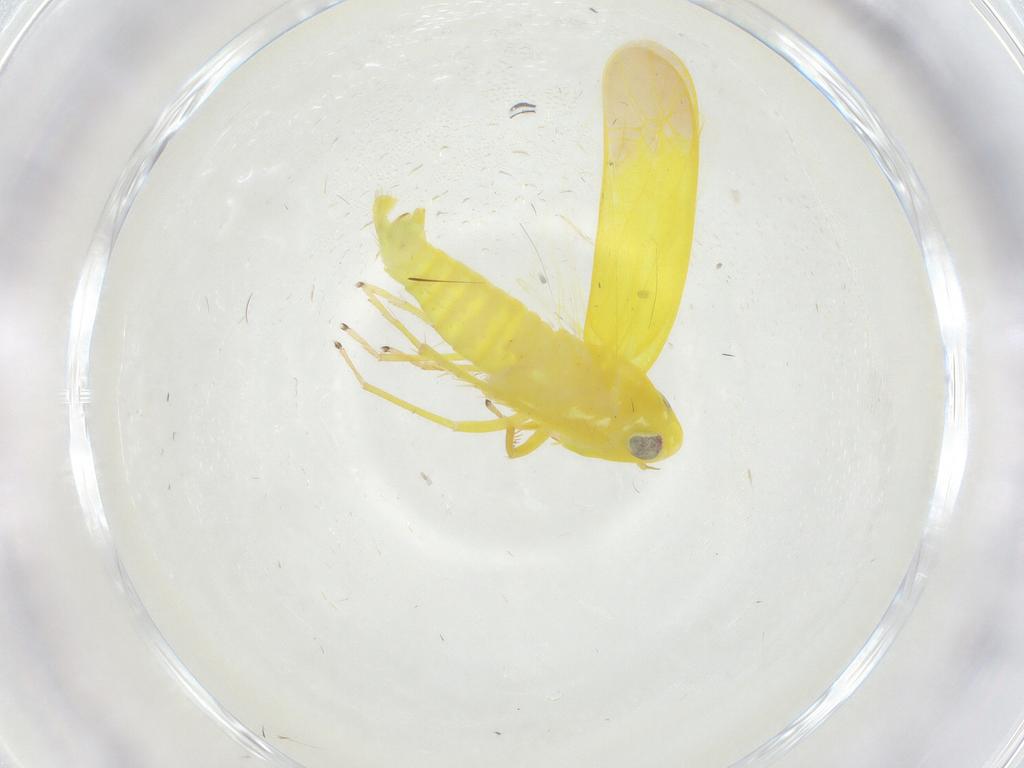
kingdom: Animalia
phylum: Arthropoda
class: Insecta
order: Hemiptera
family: Cicadellidae
